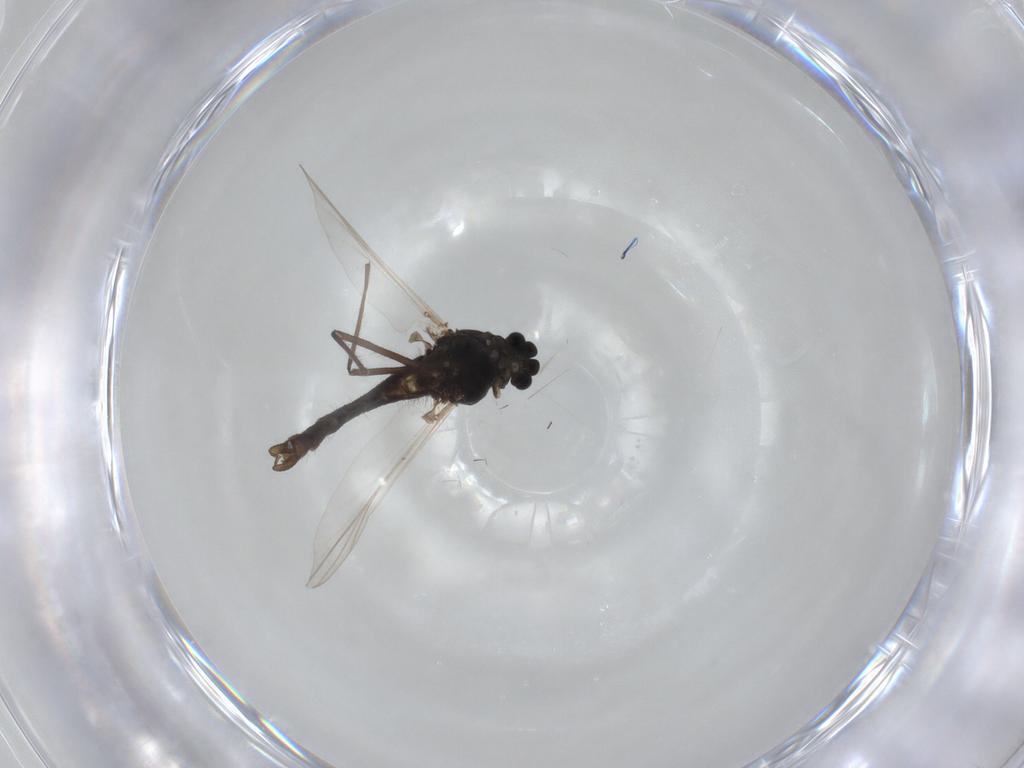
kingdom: Animalia
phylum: Arthropoda
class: Insecta
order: Diptera
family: Chironomidae
